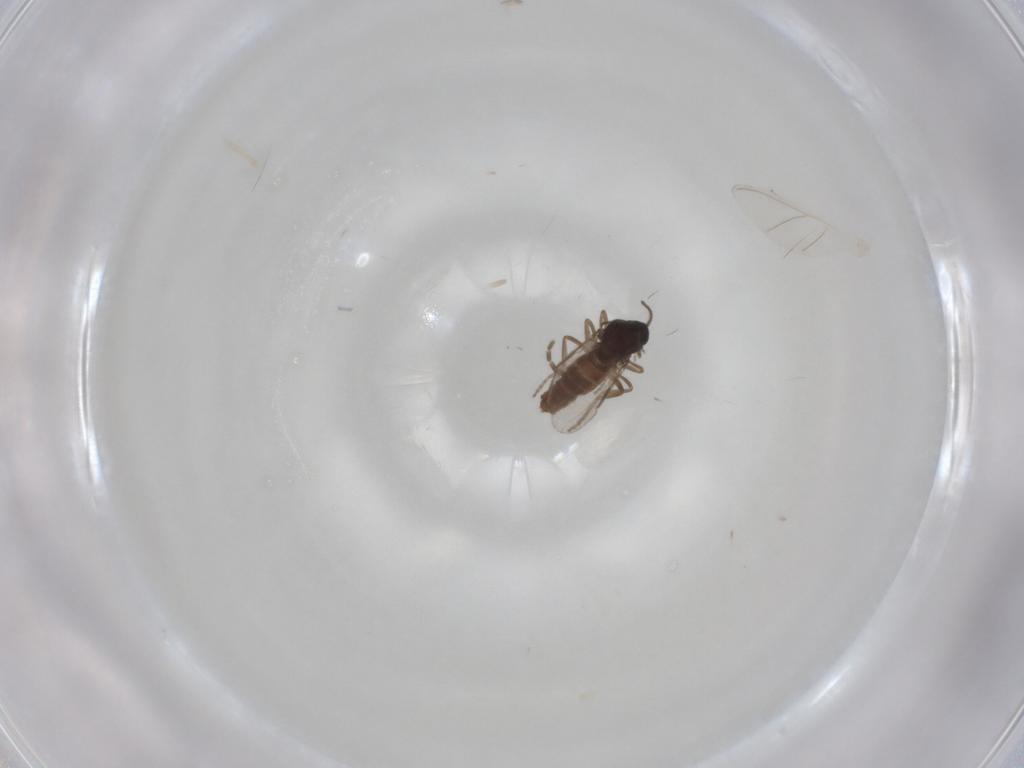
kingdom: Animalia
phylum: Arthropoda
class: Insecta
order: Diptera
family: Ceratopogonidae
